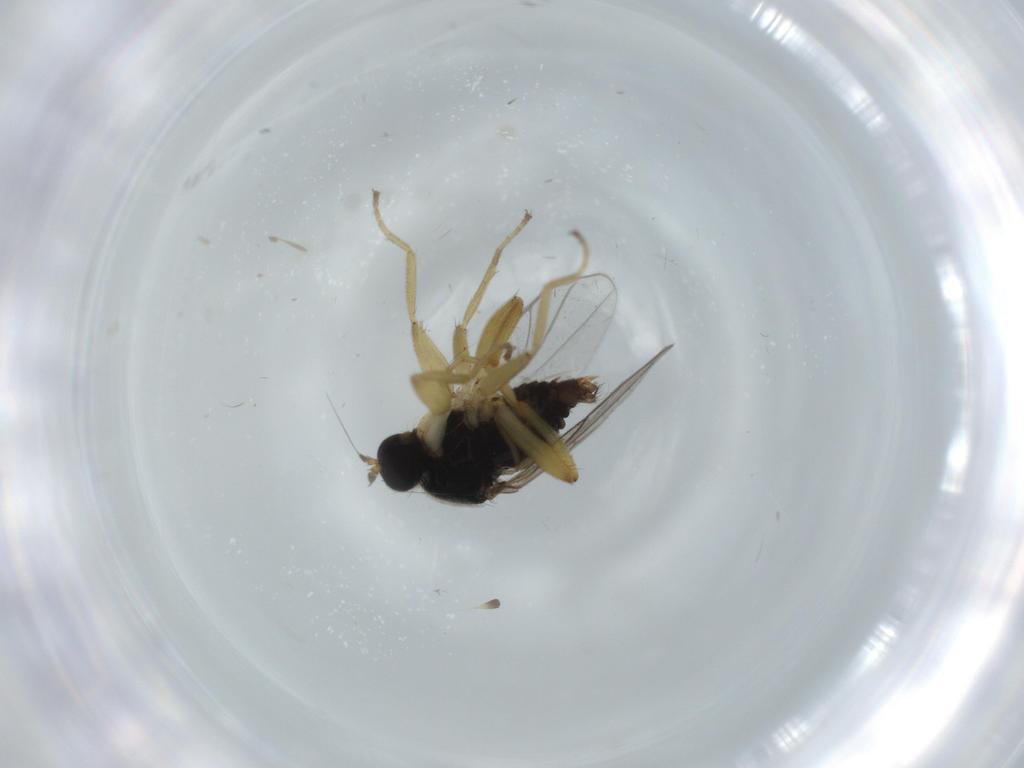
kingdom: Animalia
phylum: Arthropoda
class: Insecta
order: Diptera
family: Hybotidae
